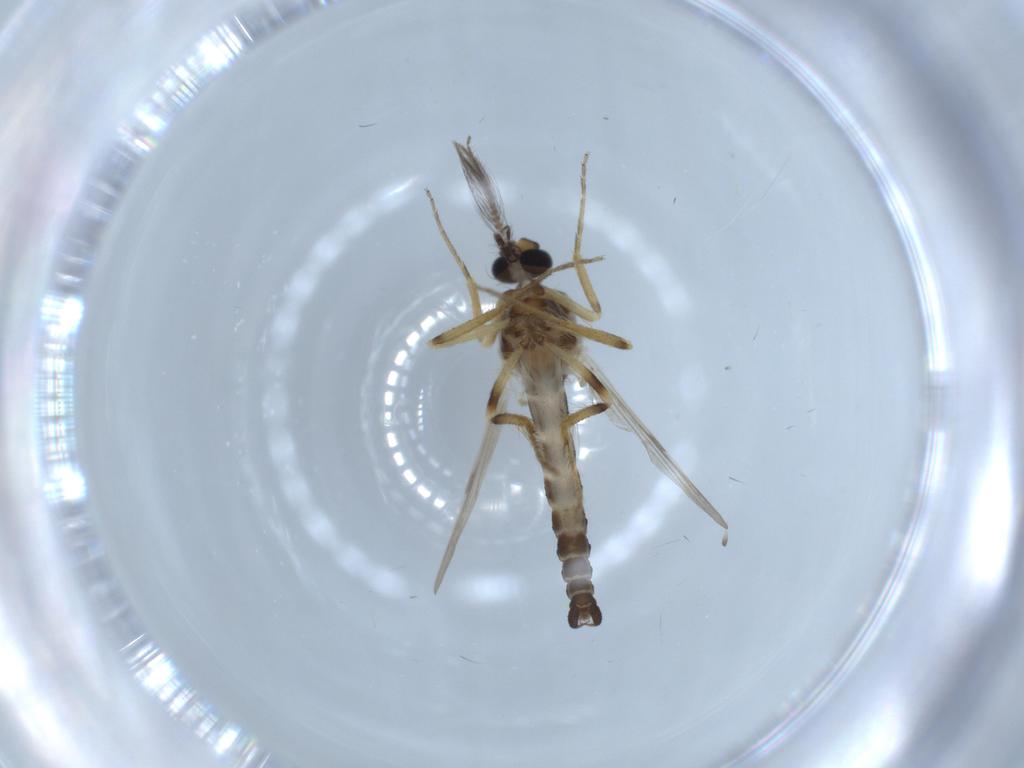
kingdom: Animalia
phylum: Arthropoda
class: Insecta
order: Diptera
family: Ceratopogonidae
